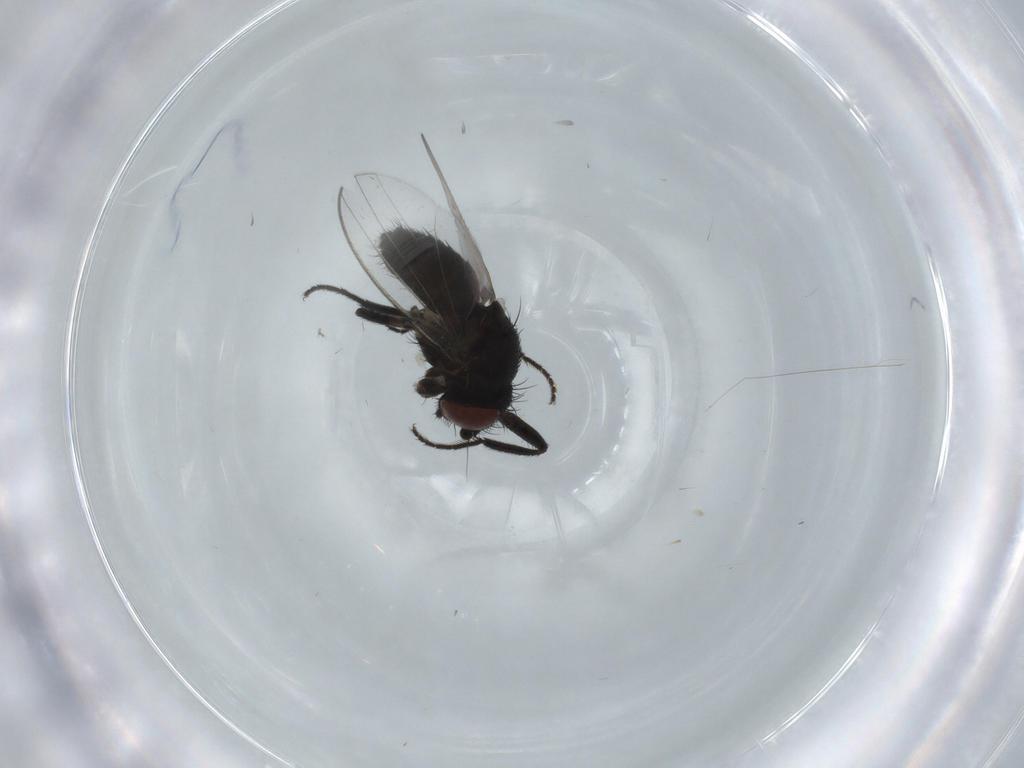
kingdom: Animalia
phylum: Arthropoda
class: Insecta
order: Diptera
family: Milichiidae
